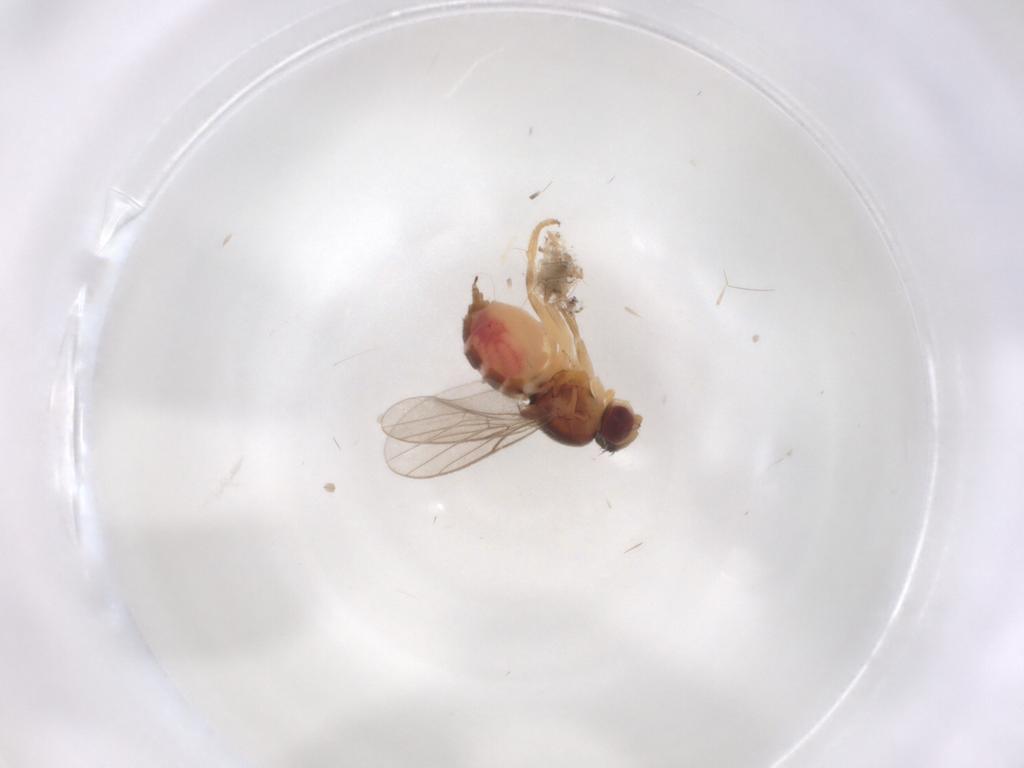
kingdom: Animalia
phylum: Arthropoda
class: Insecta
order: Diptera
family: Chloropidae
